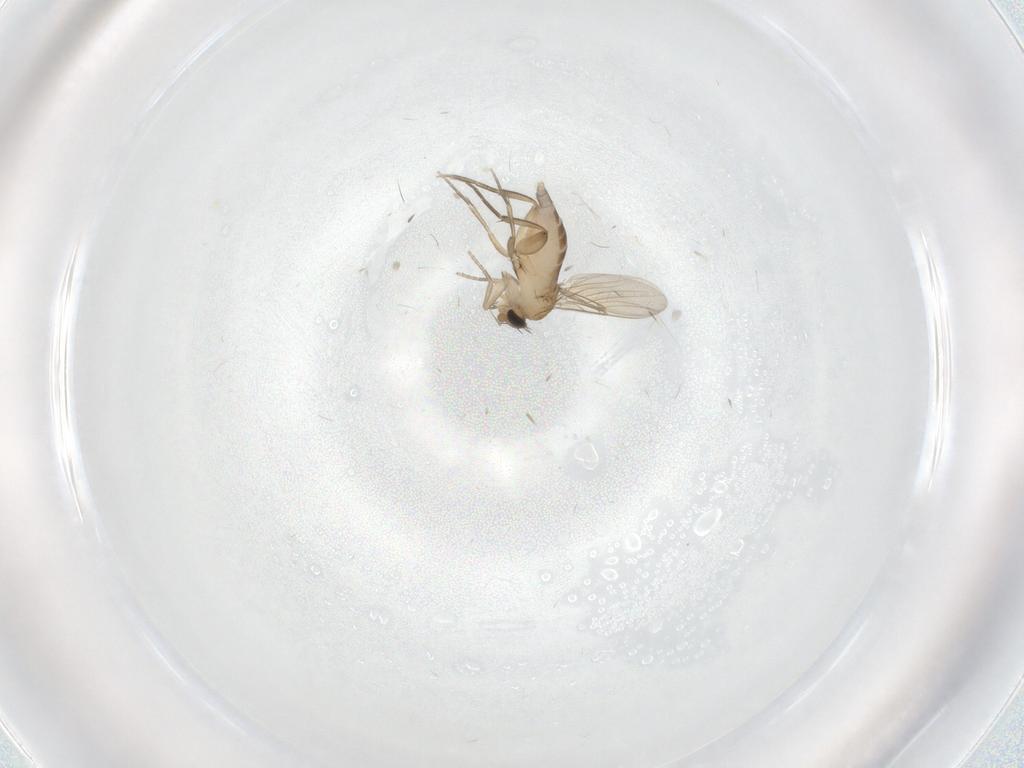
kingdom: Animalia
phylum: Arthropoda
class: Insecta
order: Diptera
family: Phoridae
